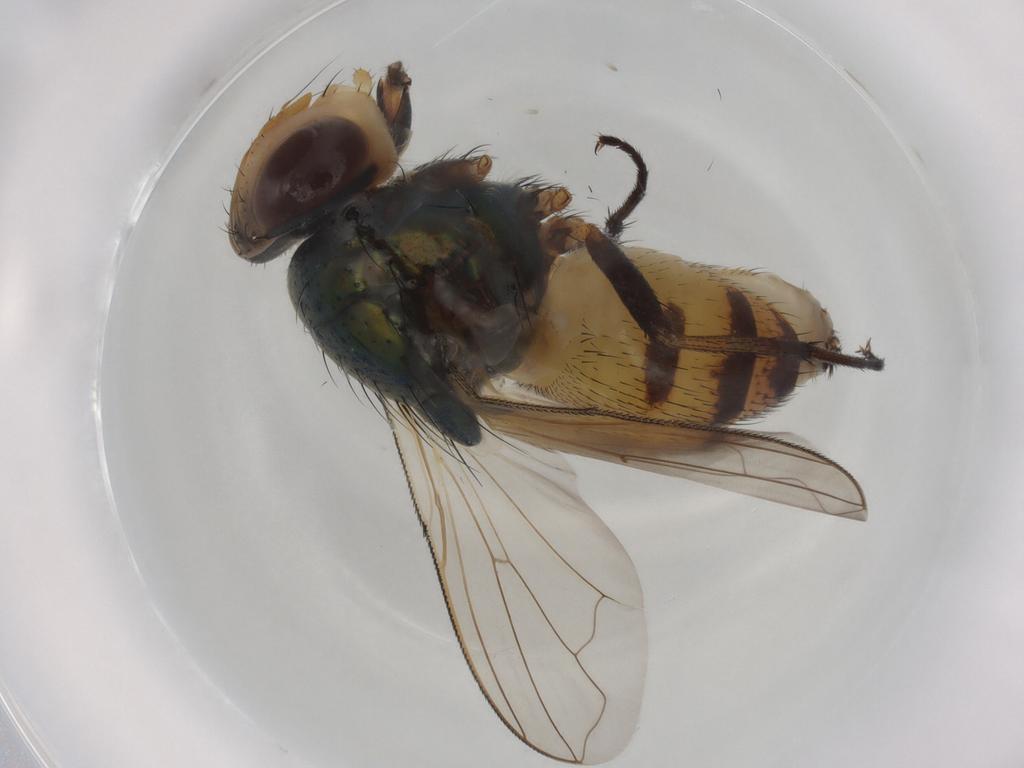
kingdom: Animalia
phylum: Arthropoda
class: Insecta
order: Diptera
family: Calliphoridae
